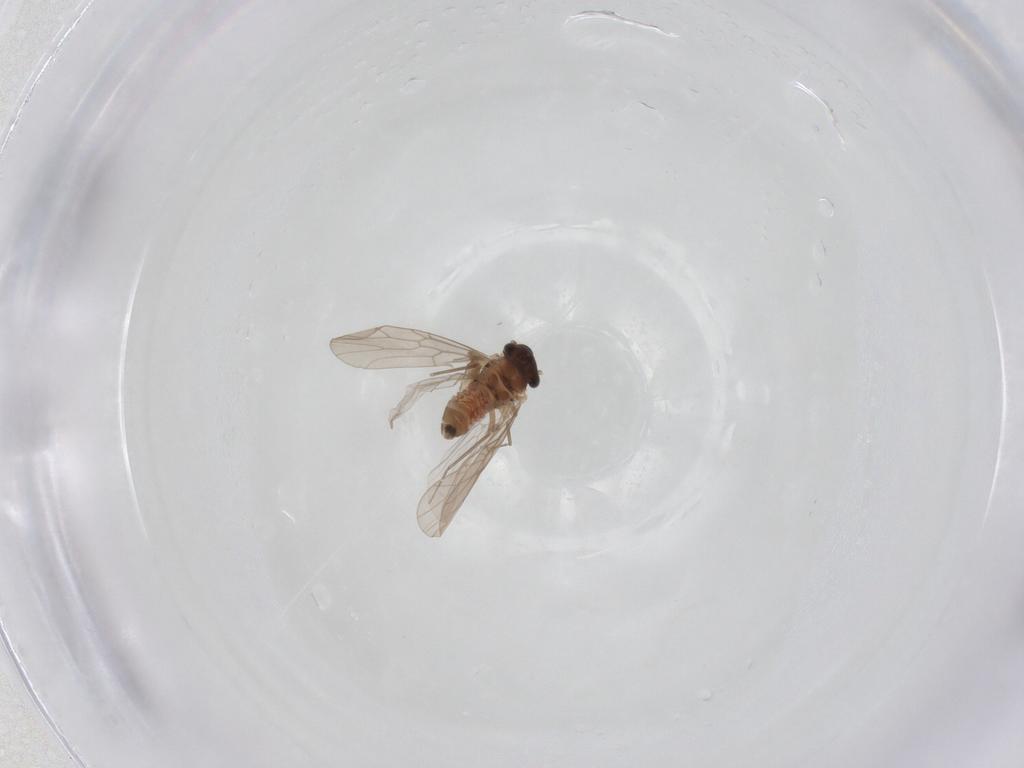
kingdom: Animalia
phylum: Arthropoda
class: Insecta
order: Psocodea
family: Lepidopsocidae
